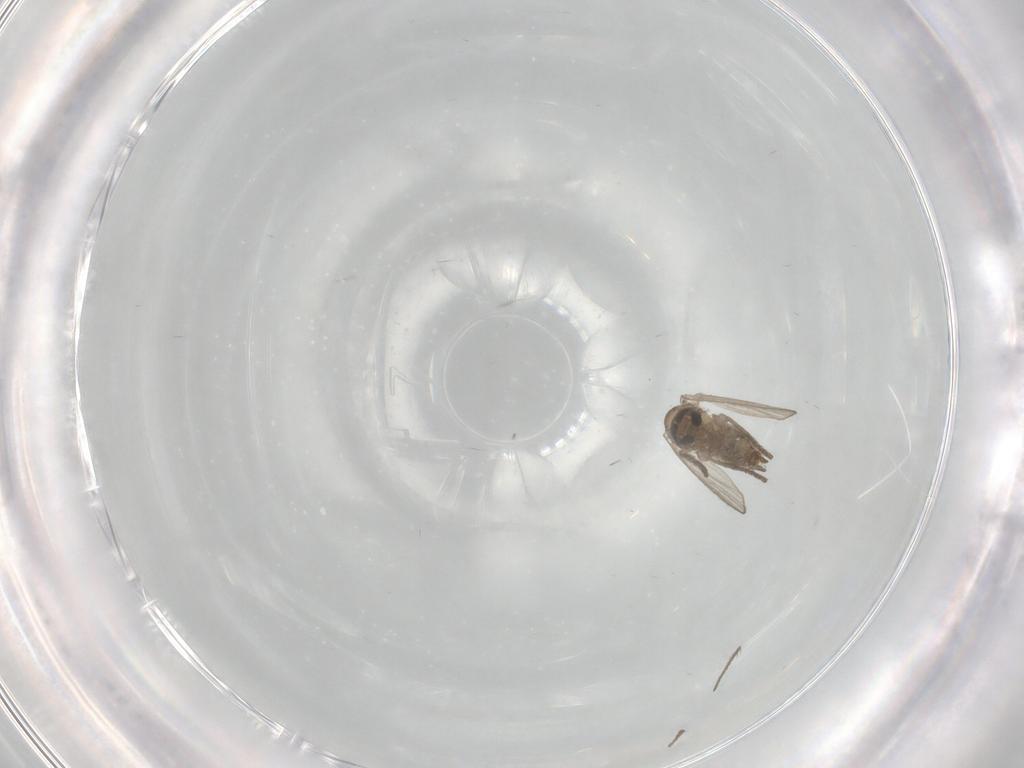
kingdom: Animalia
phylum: Arthropoda
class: Insecta
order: Diptera
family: Psychodidae
